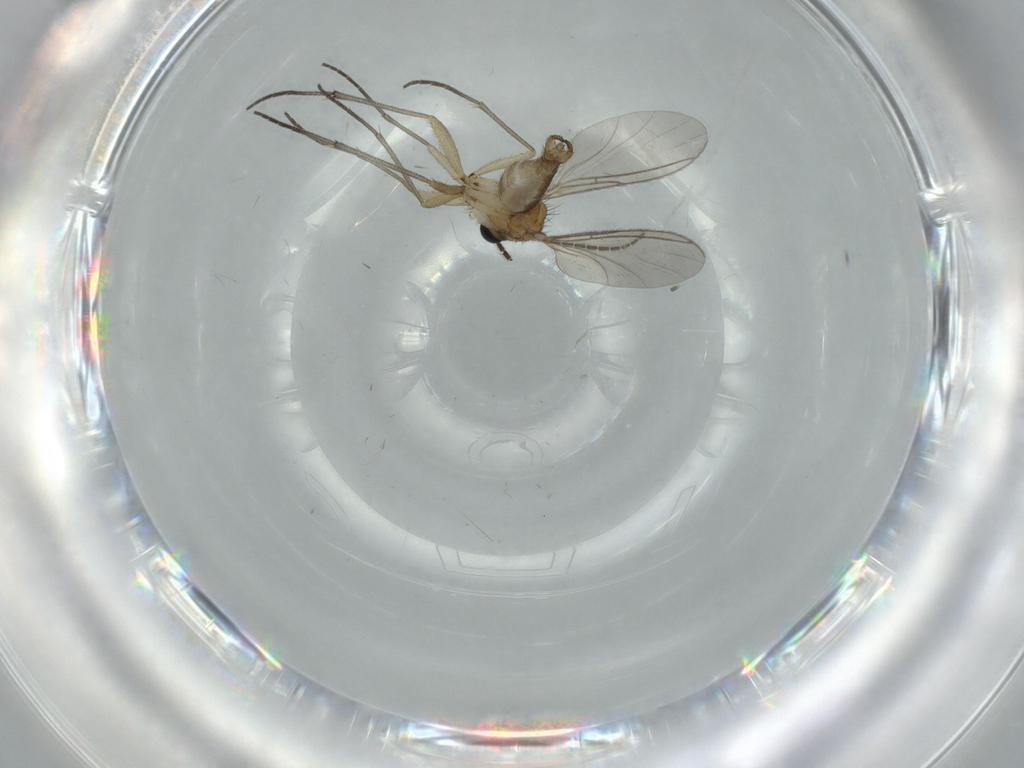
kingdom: Animalia
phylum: Arthropoda
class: Insecta
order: Diptera
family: Sciaridae
